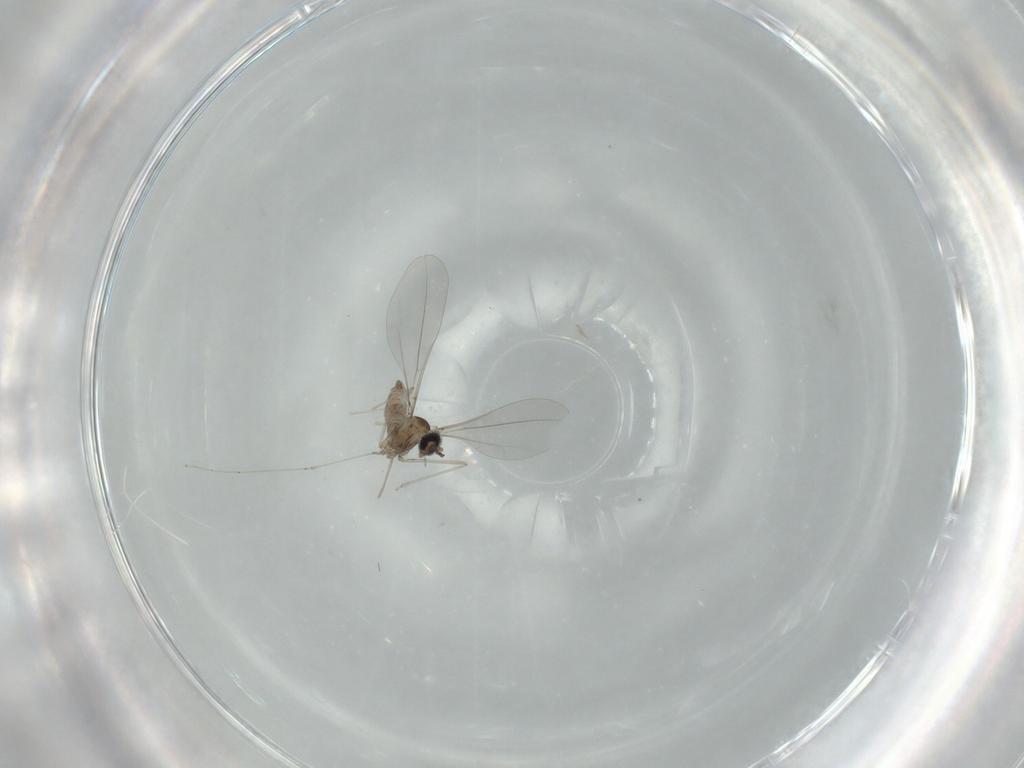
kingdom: Animalia
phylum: Arthropoda
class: Insecta
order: Diptera
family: Cecidomyiidae
